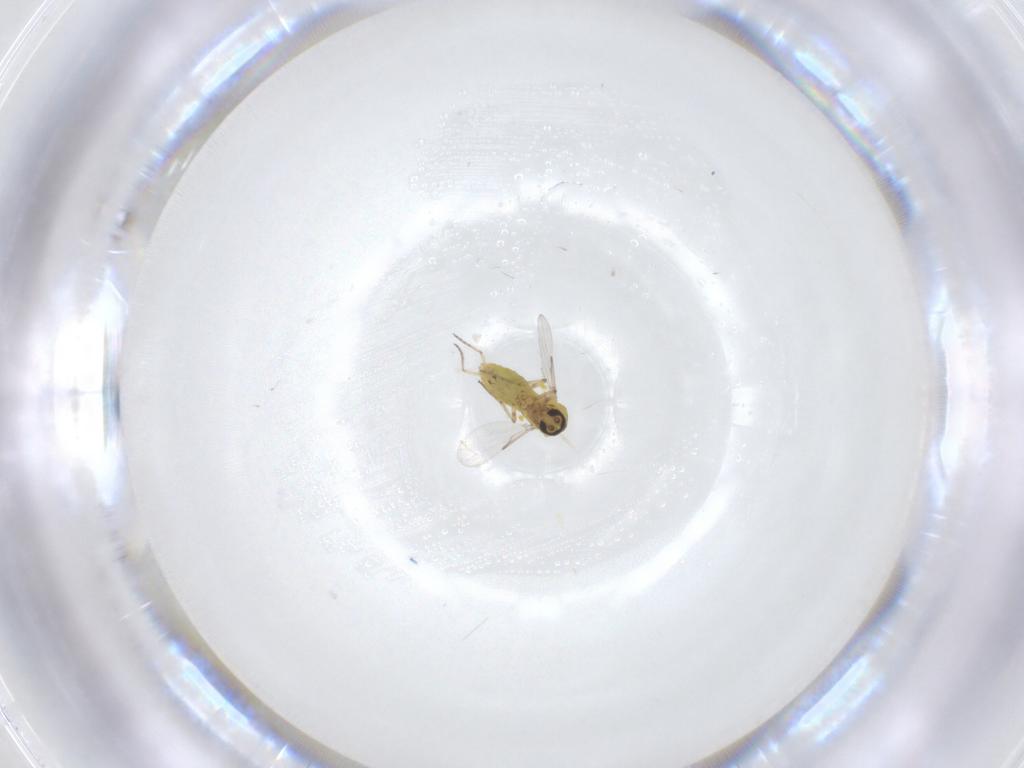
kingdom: Animalia
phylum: Arthropoda
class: Insecta
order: Diptera
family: Ceratopogonidae
